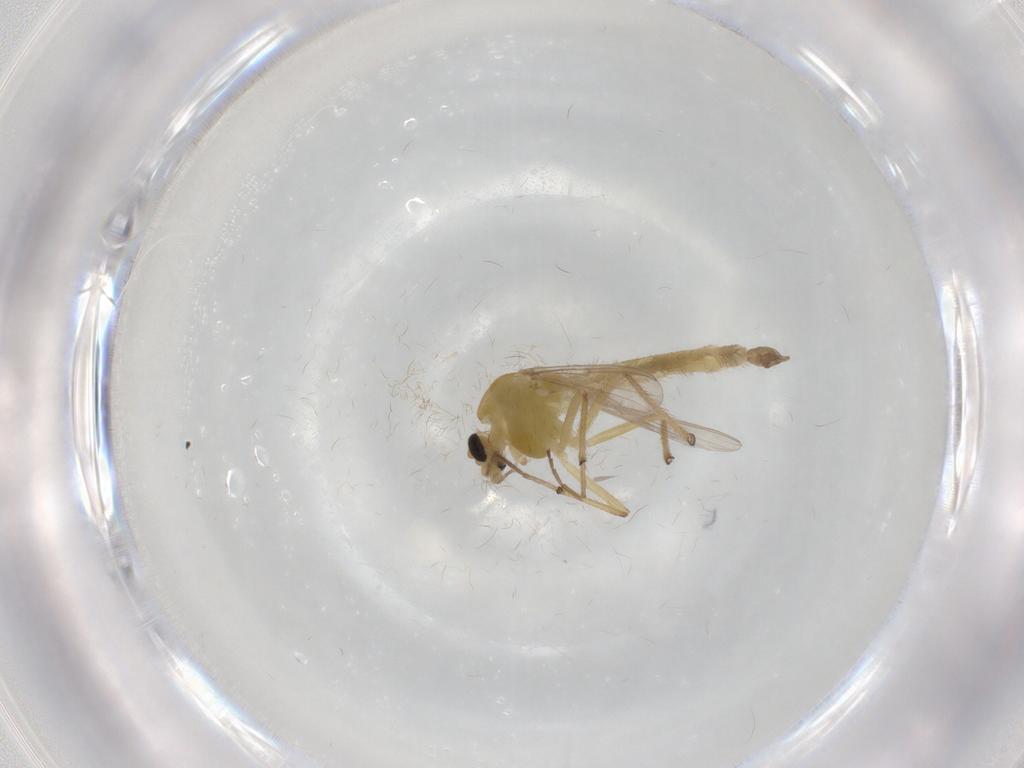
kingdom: Animalia
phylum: Arthropoda
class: Insecta
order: Diptera
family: Chironomidae
